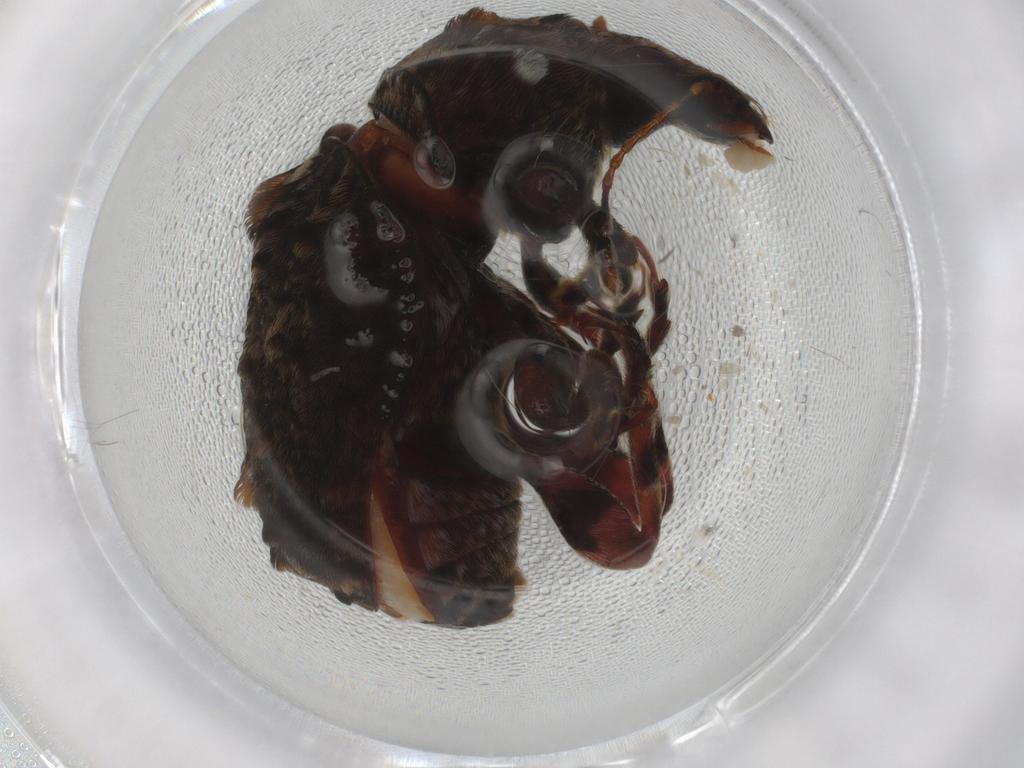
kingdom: Animalia
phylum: Arthropoda
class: Insecta
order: Coleoptera
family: Anthribidae
